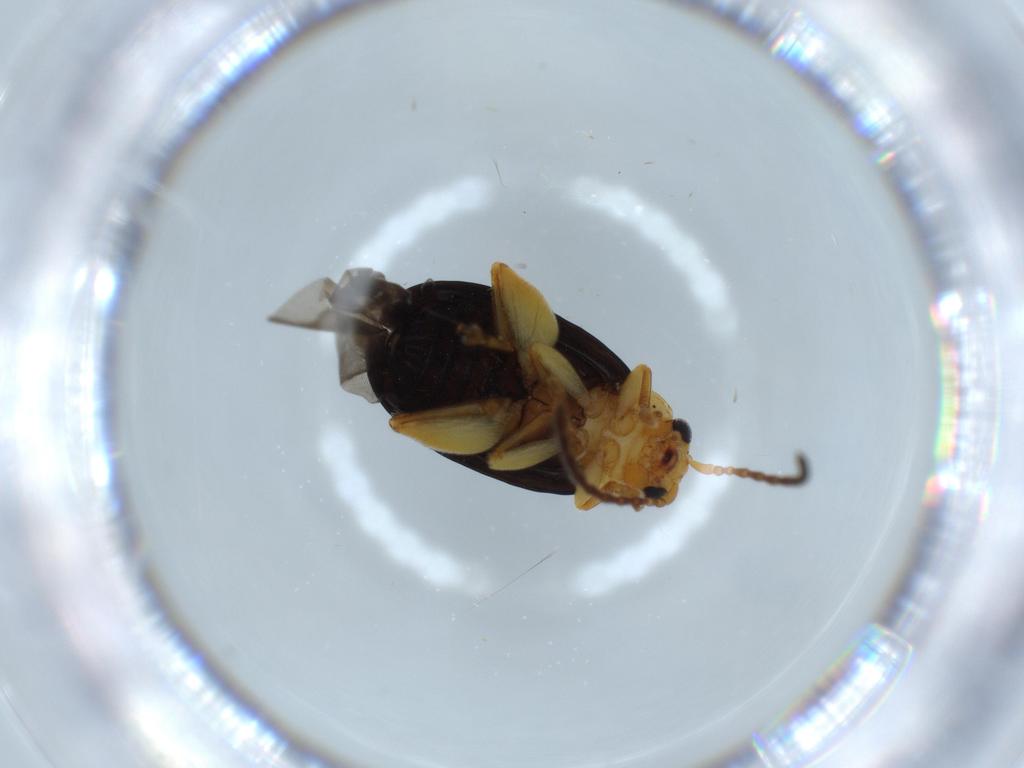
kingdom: Animalia
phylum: Arthropoda
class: Insecta
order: Coleoptera
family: Chrysomelidae
